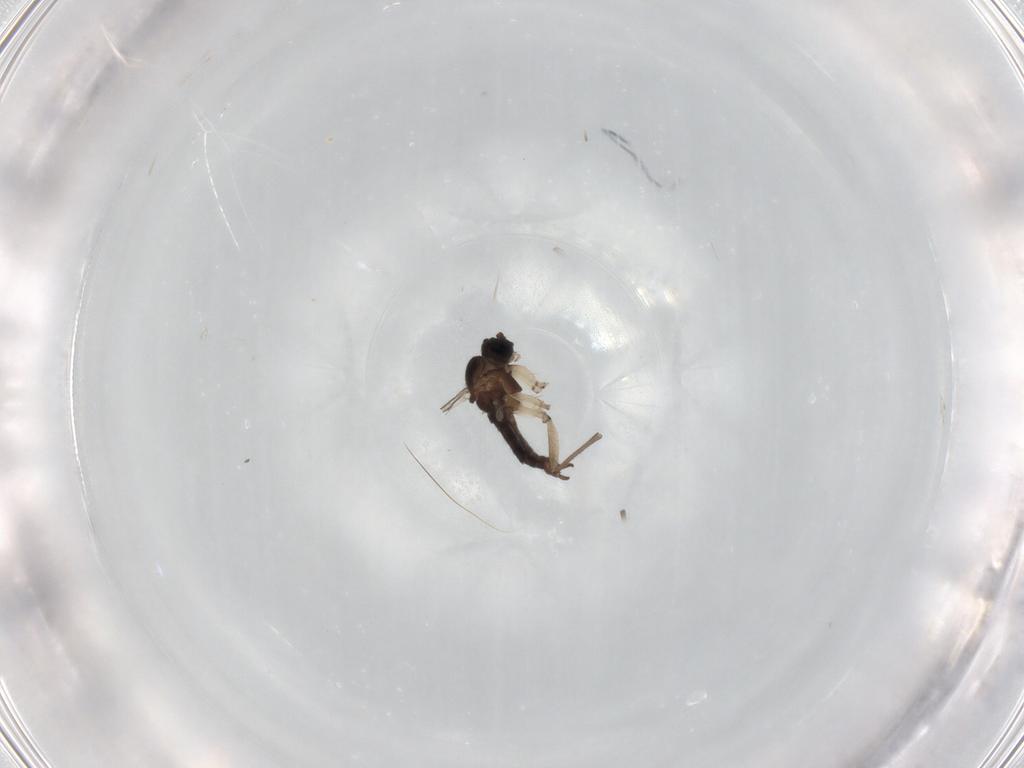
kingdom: Animalia
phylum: Arthropoda
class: Insecta
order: Diptera
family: Sciaridae
